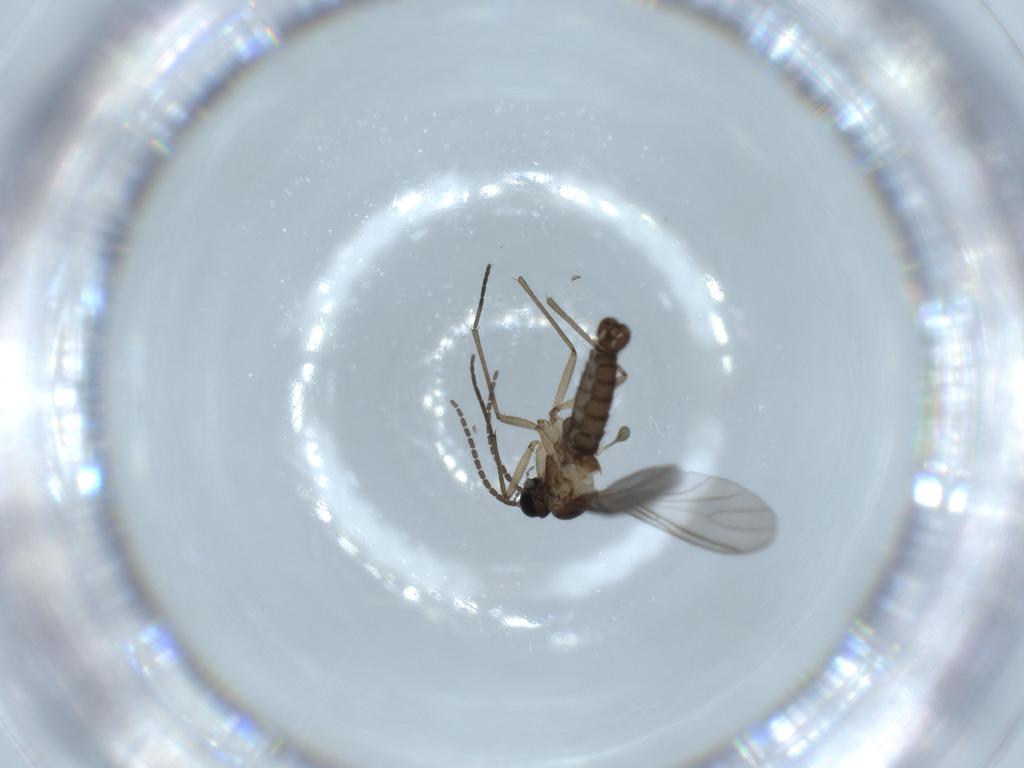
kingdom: Animalia
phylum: Arthropoda
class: Insecta
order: Diptera
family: Sciaridae
